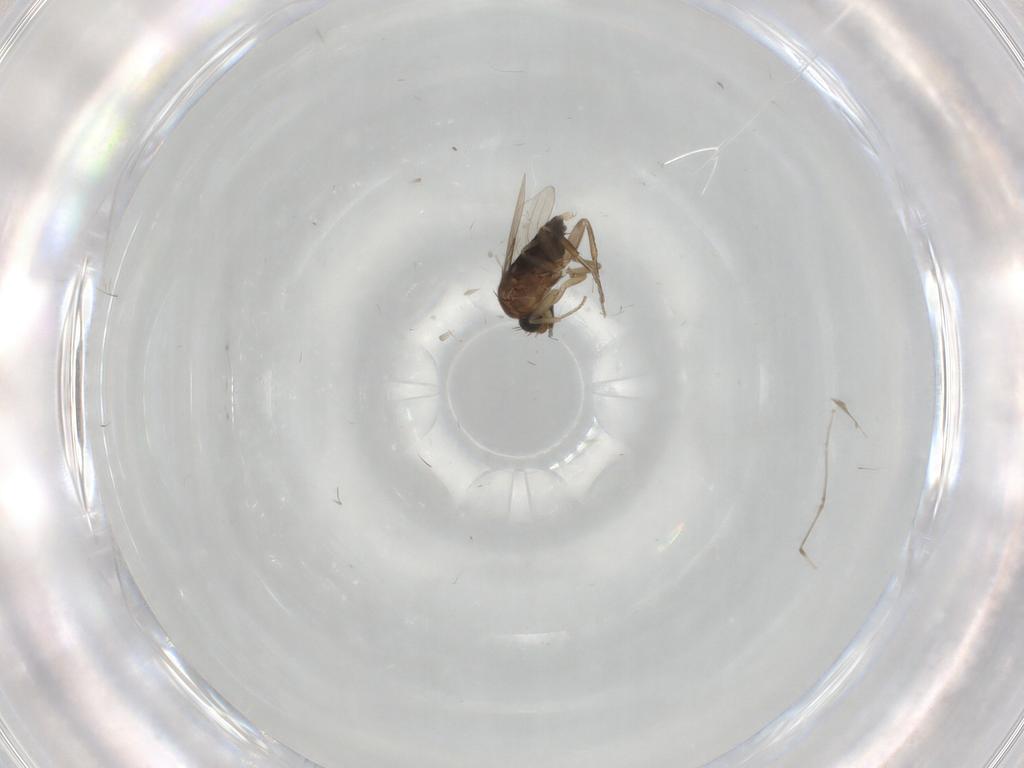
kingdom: Animalia
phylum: Arthropoda
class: Insecta
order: Diptera
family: Phoridae
